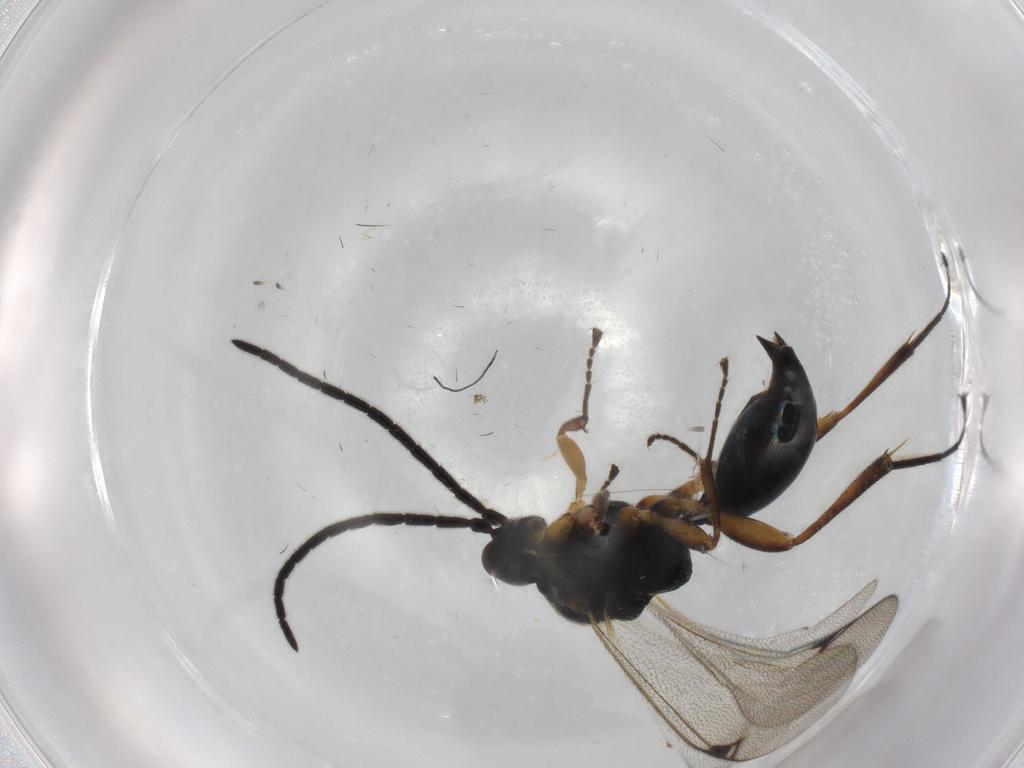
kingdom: Animalia
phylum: Arthropoda
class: Insecta
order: Hymenoptera
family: Proctotrupidae
